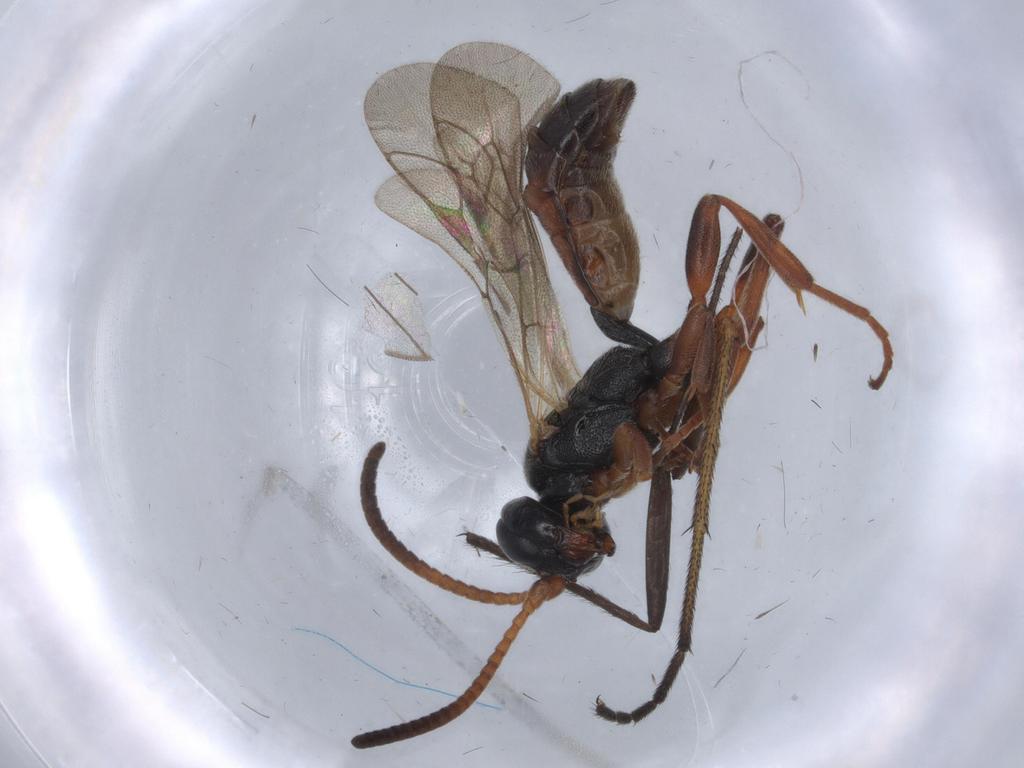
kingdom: Animalia
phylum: Arthropoda
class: Insecta
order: Hymenoptera
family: Ichneumonidae
